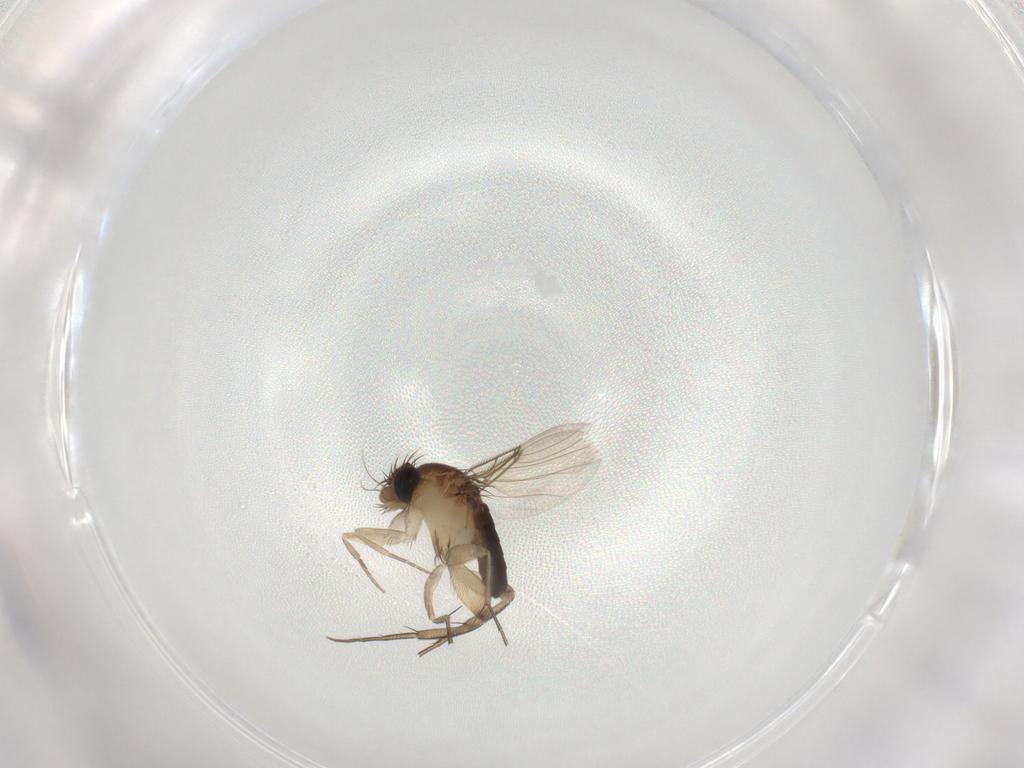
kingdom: Animalia
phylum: Arthropoda
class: Insecta
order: Diptera
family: Phoridae
